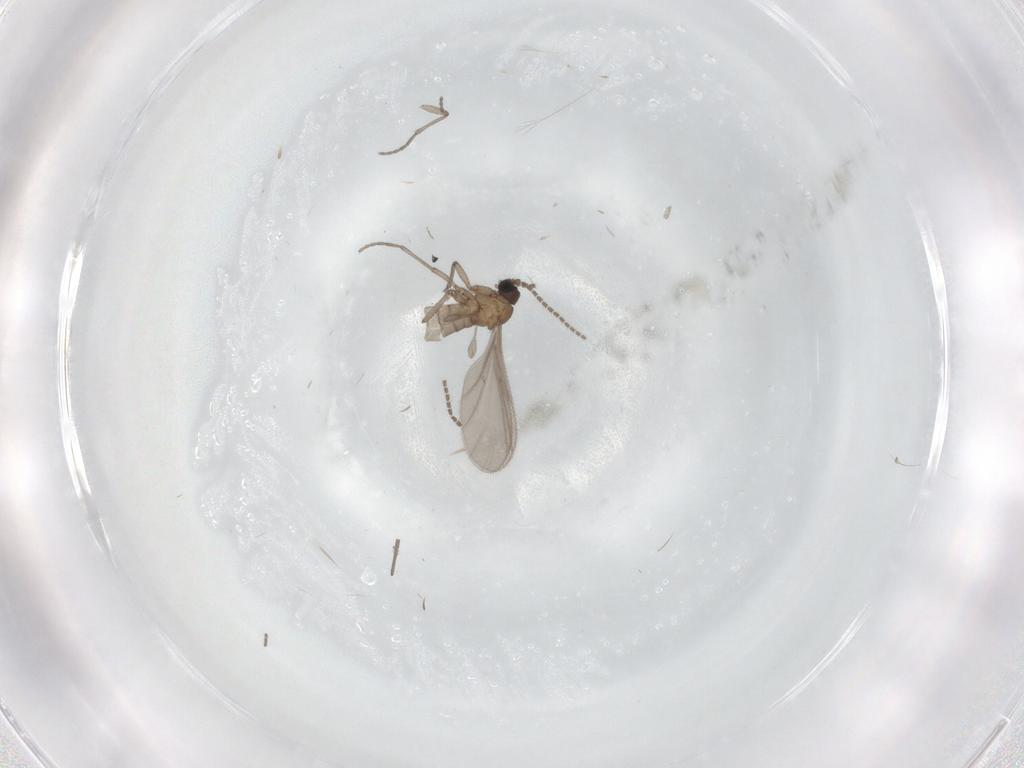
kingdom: Animalia
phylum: Arthropoda
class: Insecta
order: Diptera
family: Sciaridae
